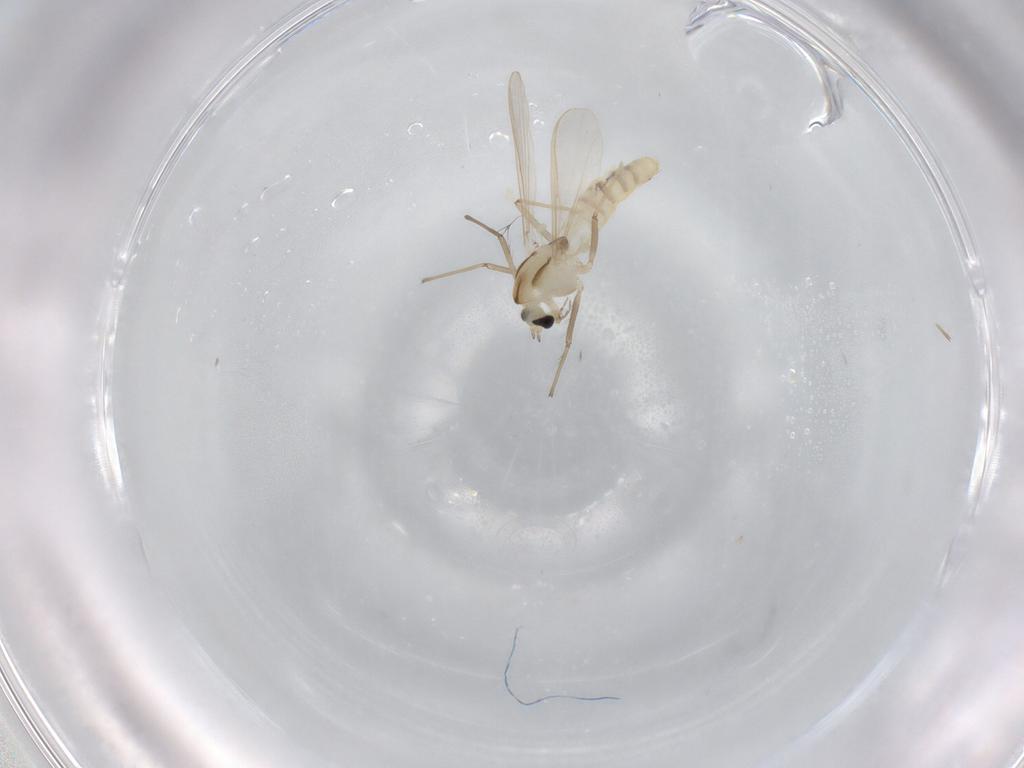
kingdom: Animalia
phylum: Arthropoda
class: Insecta
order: Diptera
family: Chironomidae
